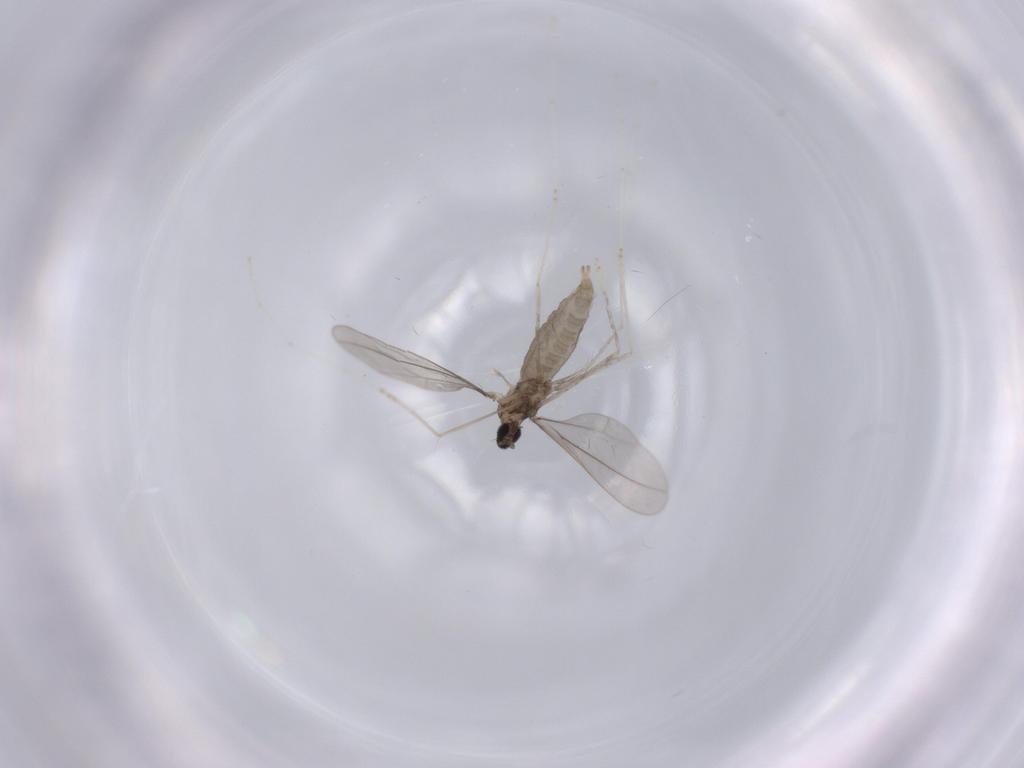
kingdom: Animalia
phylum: Arthropoda
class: Insecta
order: Diptera
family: Cecidomyiidae
